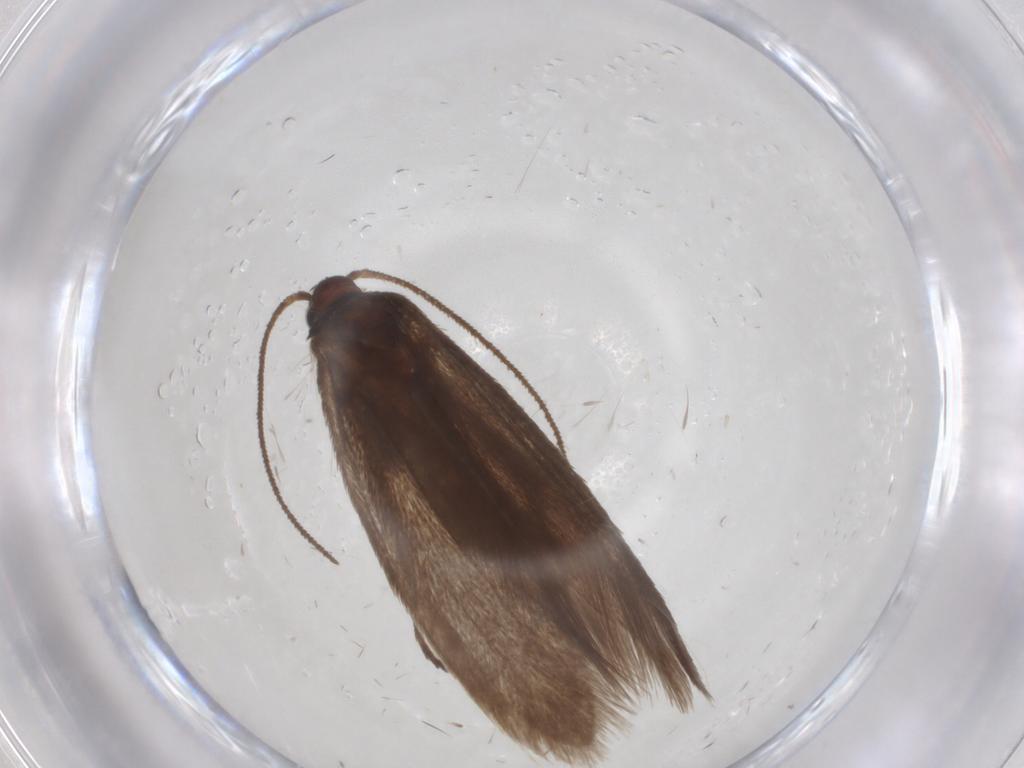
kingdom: Animalia
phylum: Arthropoda
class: Insecta
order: Lepidoptera
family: Limacodidae
